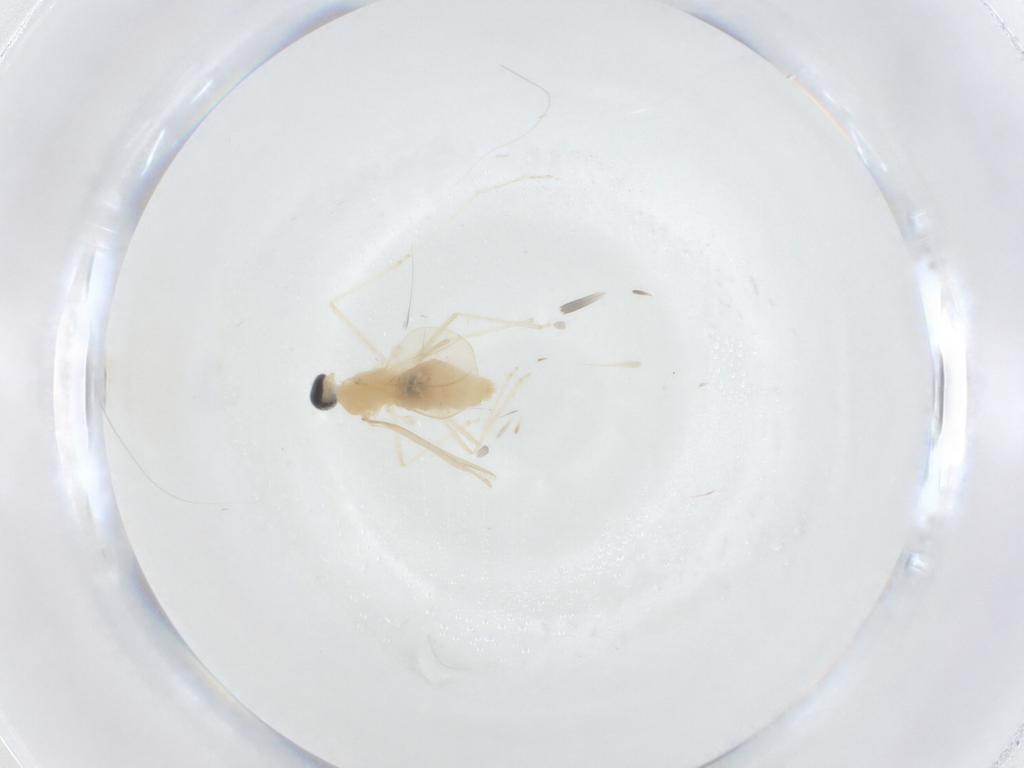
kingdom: Animalia
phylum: Arthropoda
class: Insecta
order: Diptera
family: Cecidomyiidae
